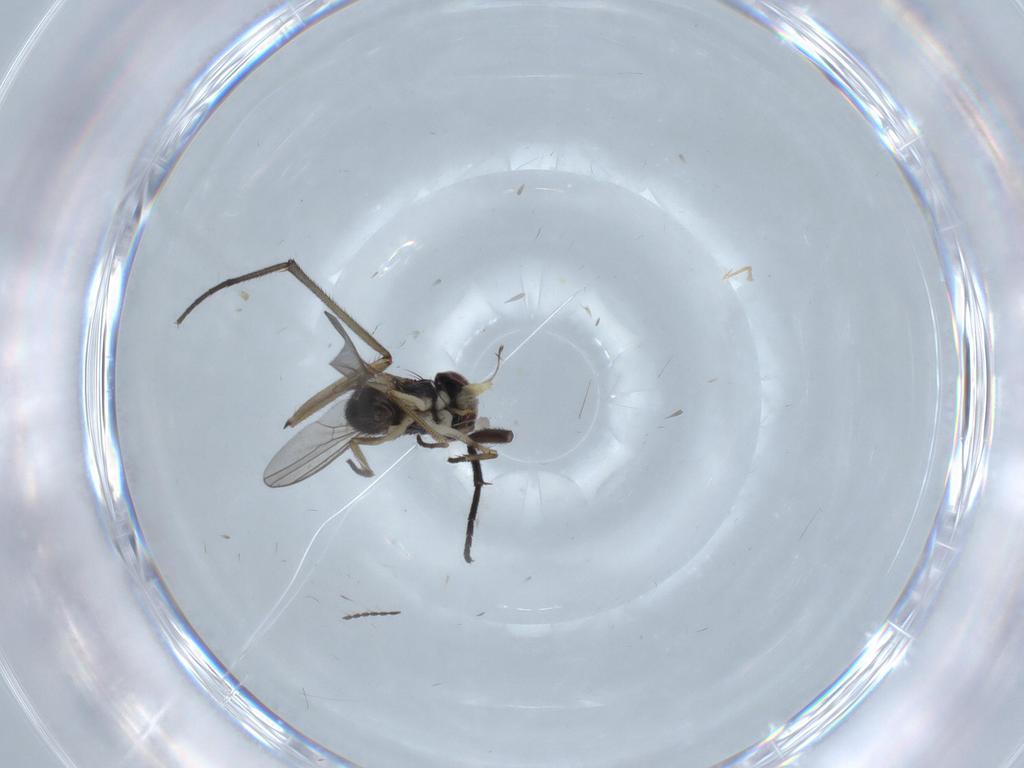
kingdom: Animalia
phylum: Arthropoda
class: Insecta
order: Diptera
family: Dolichopodidae
